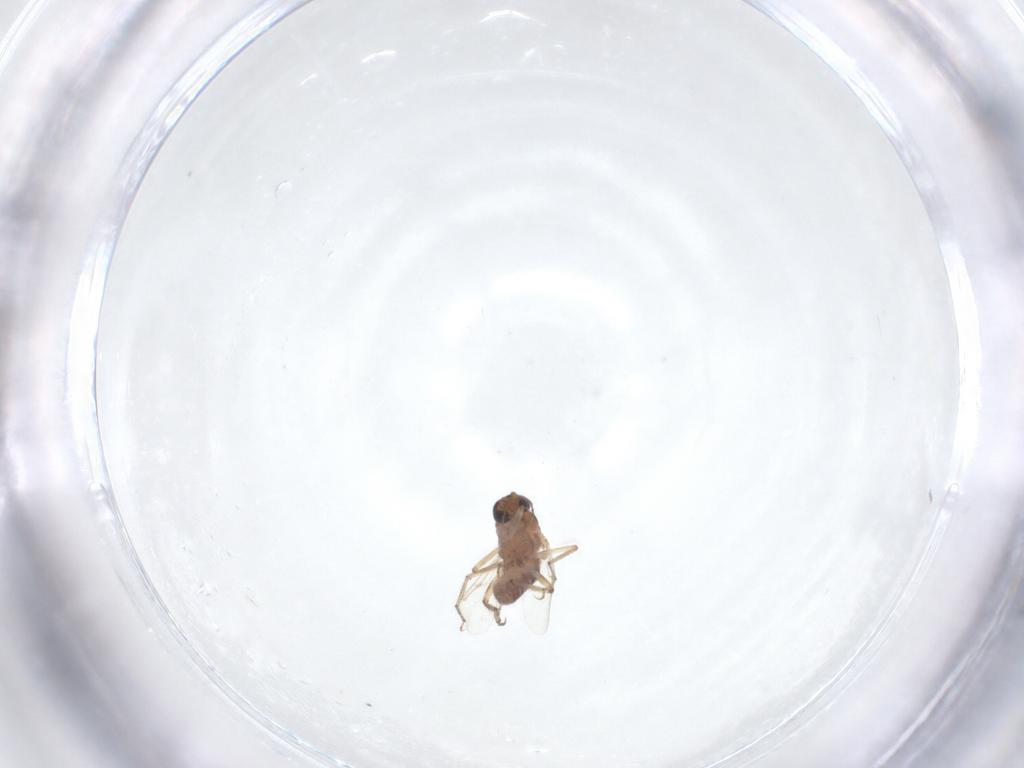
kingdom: Animalia
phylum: Arthropoda
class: Insecta
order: Diptera
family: Ceratopogonidae
